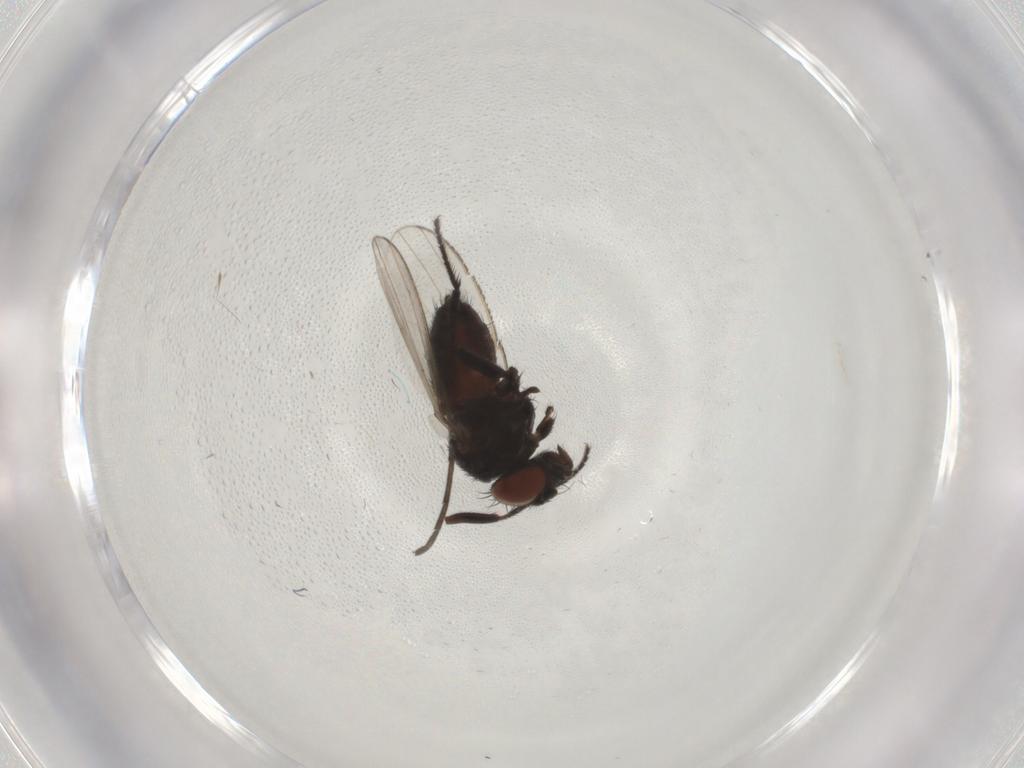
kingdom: Animalia
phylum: Arthropoda
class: Insecta
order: Diptera
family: Milichiidae
